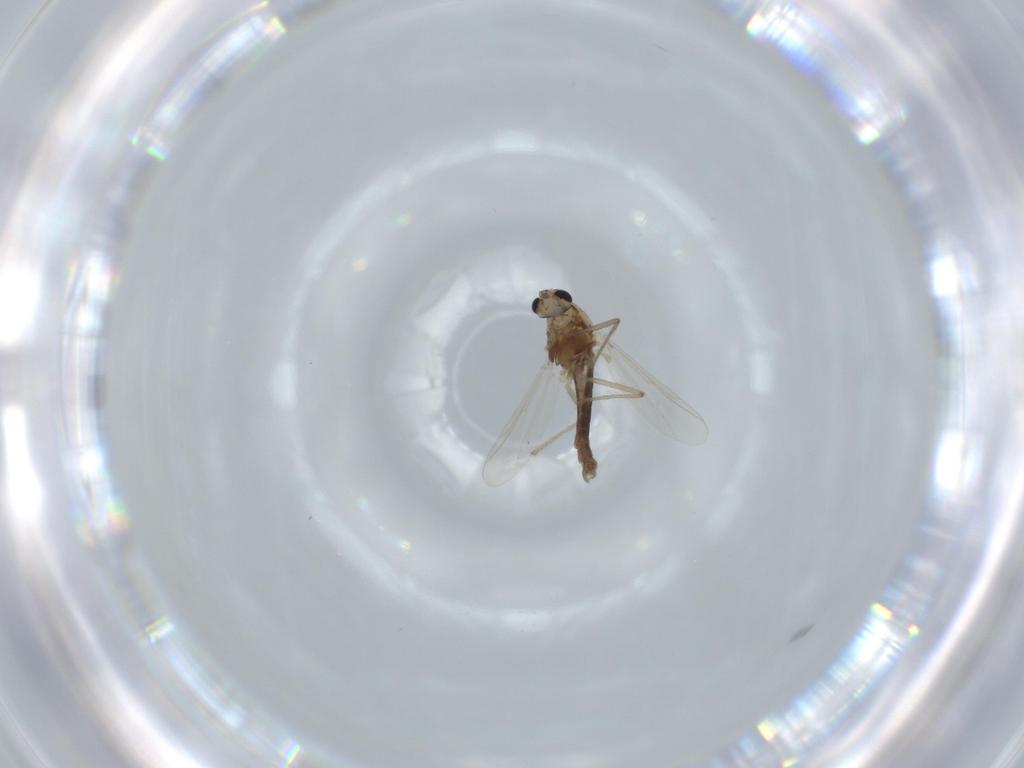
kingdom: Animalia
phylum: Arthropoda
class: Insecta
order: Diptera
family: Chironomidae
